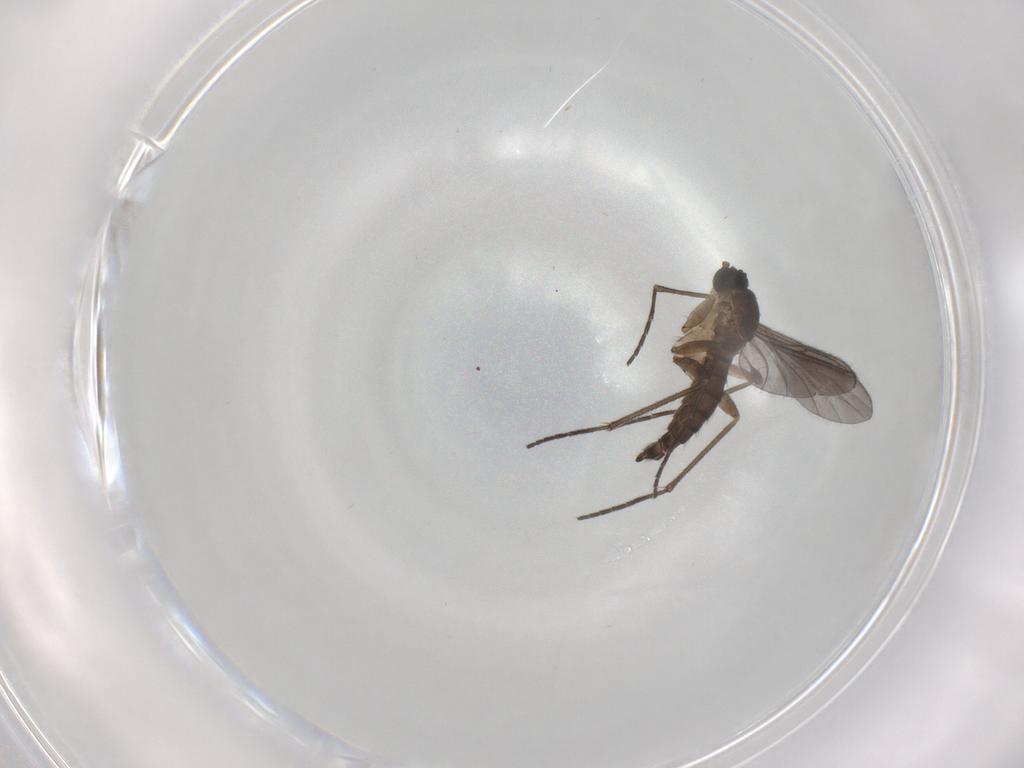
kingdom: Animalia
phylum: Arthropoda
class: Insecta
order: Diptera
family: Sciaridae
